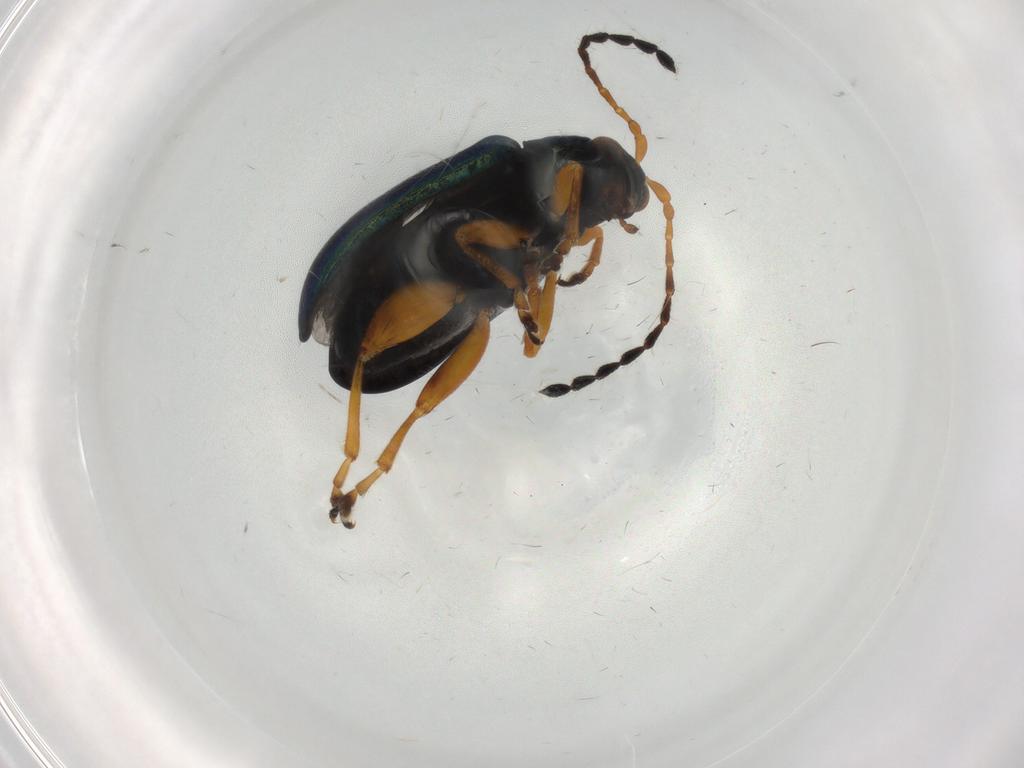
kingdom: Animalia
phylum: Arthropoda
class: Insecta
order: Coleoptera
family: Chrysomelidae
